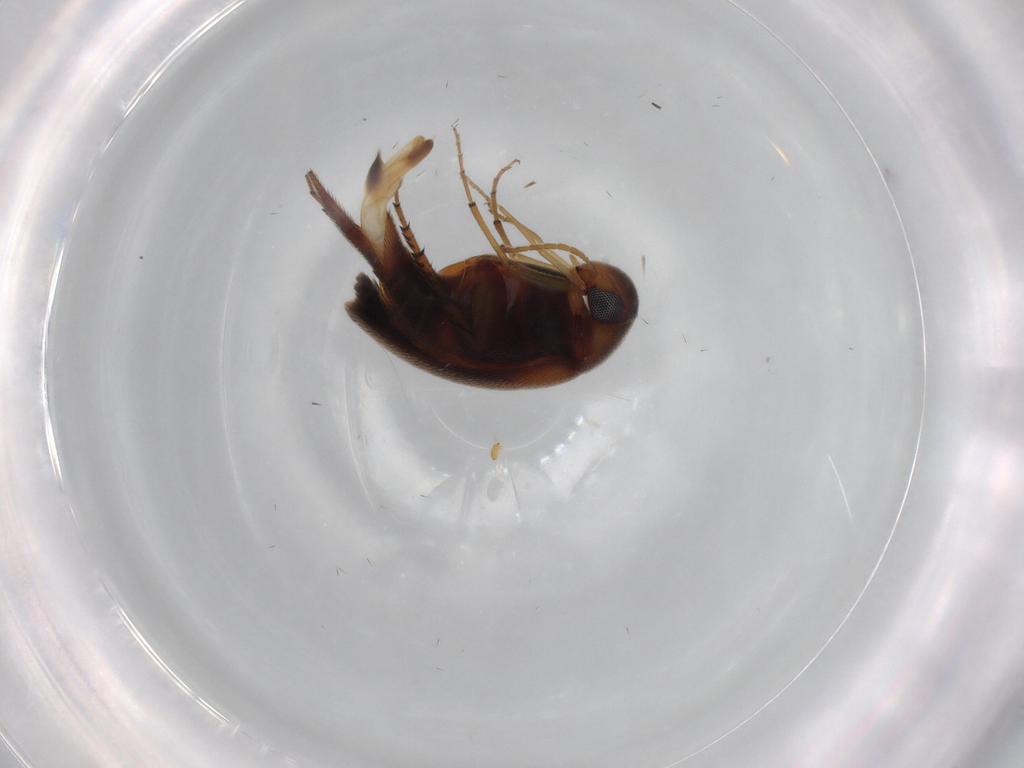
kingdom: Animalia
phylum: Arthropoda
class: Insecta
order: Coleoptera
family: Mordellidae
